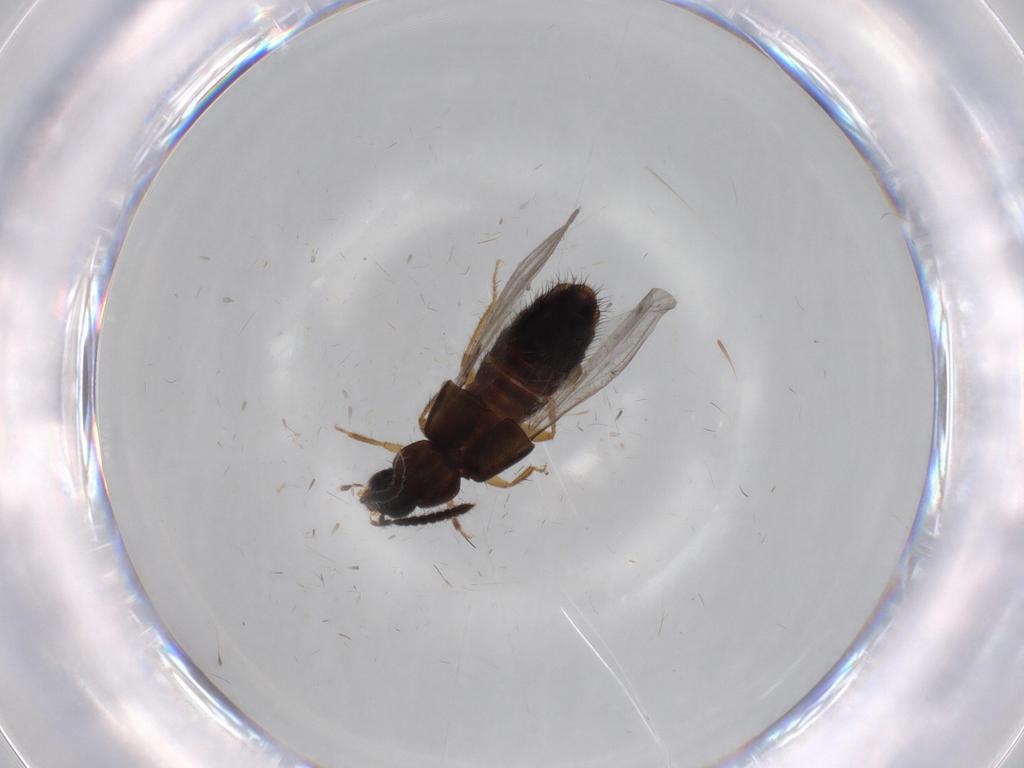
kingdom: Animalia
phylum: Arthropoda
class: Insecta
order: Coleoptera
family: Staphylinidae
